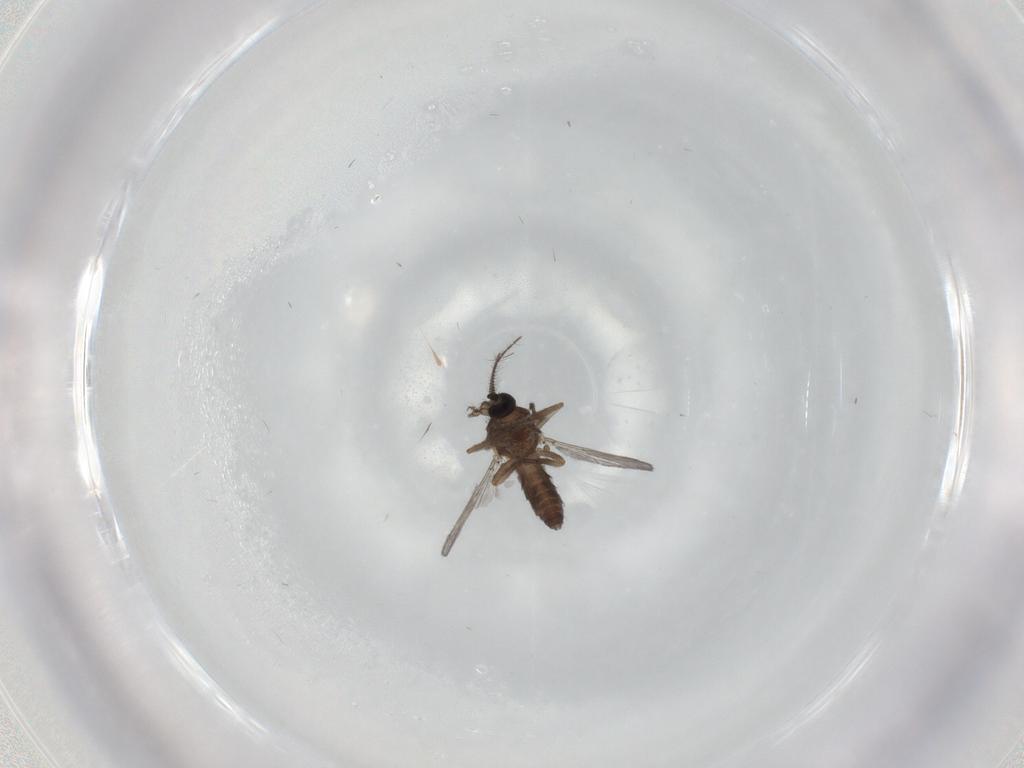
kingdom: Animalia
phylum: Arthropoda
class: Insecta
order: Diptera
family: Ceratopogonidae
